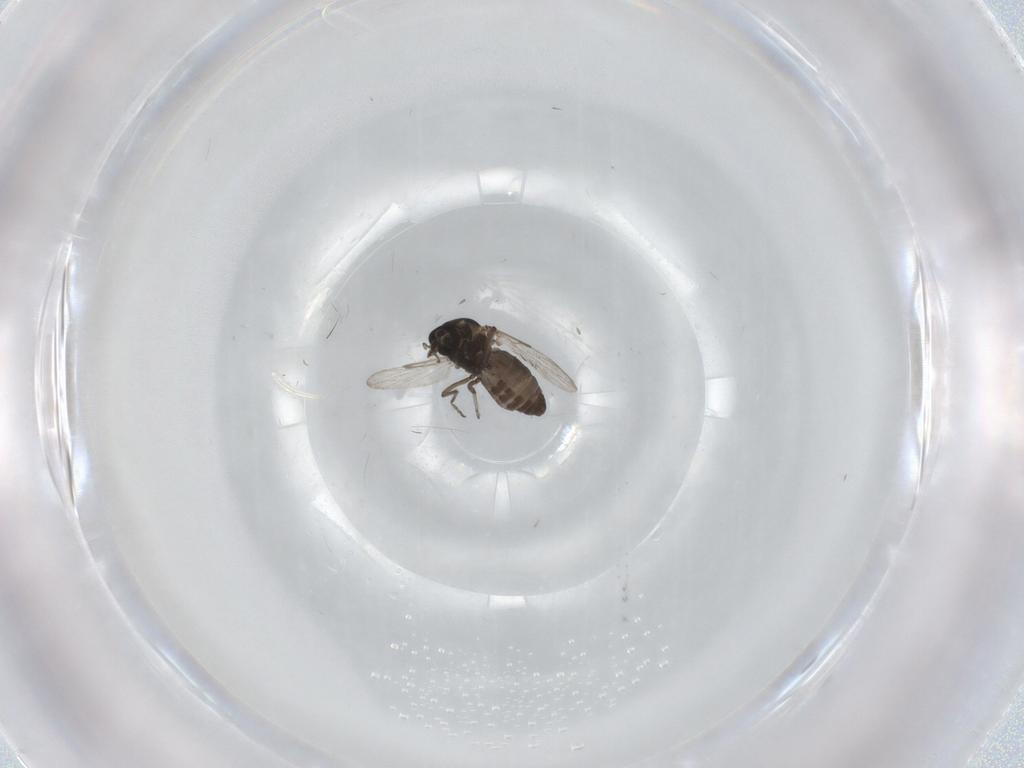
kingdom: Animalia
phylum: Arthropoda
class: Insecta
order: Diptera
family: Ceratopogonidae
